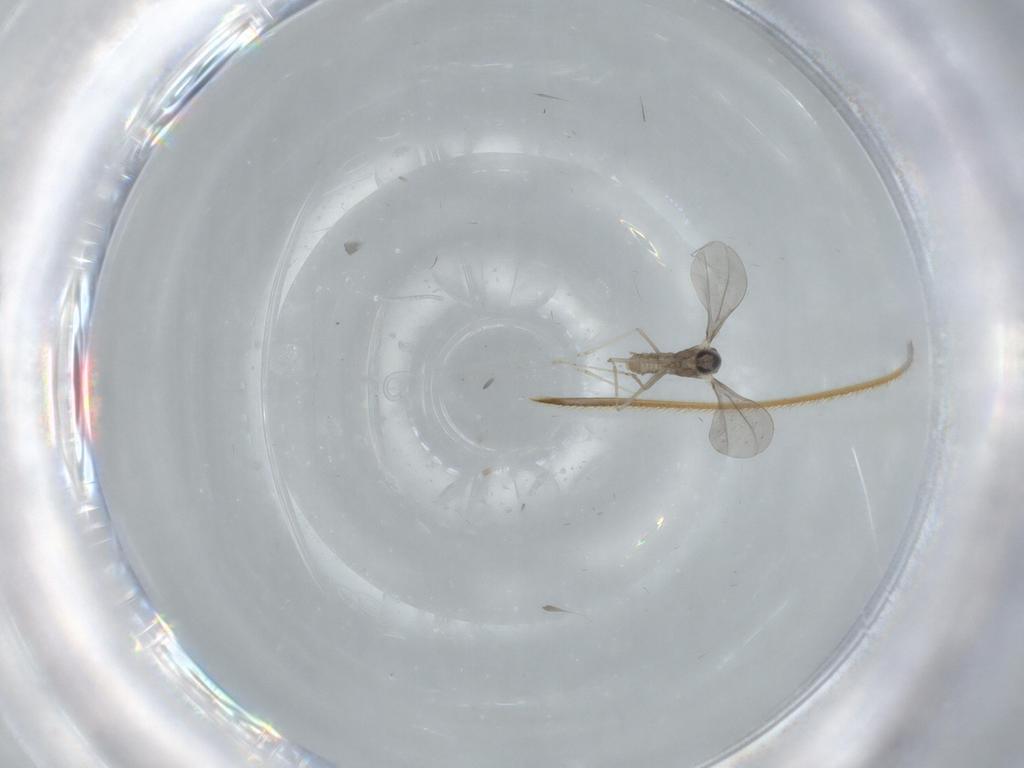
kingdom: Animalia
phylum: Arthropoda
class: Insecta
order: Diptera
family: Cecidomyiidae
